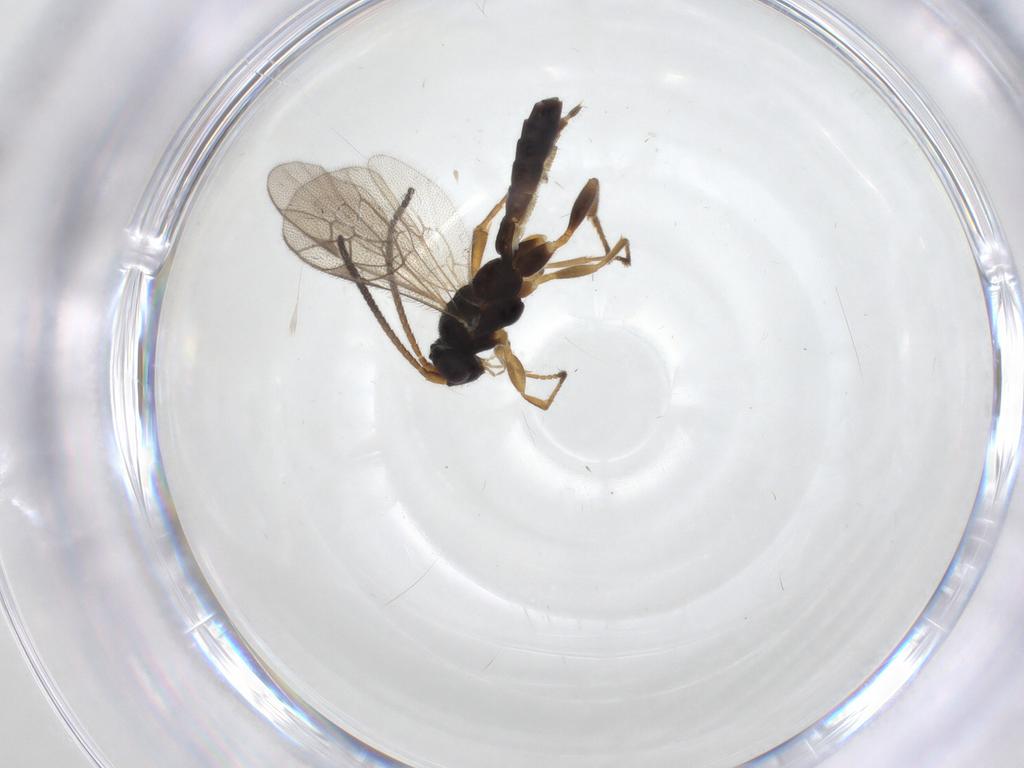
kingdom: Animalia
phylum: Arthropoda
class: Insecta
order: Hymenoptera
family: Ichneumonidae
